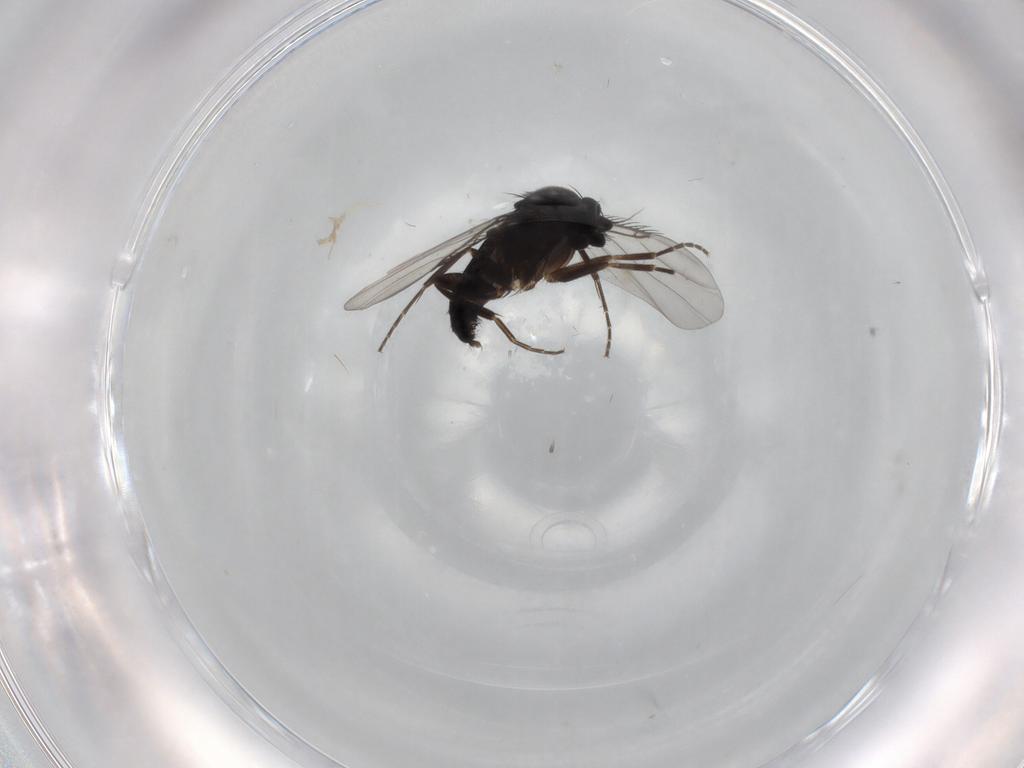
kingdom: Animalia
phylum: Arthropoda
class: Insecta
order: Diptera
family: Phoridae
